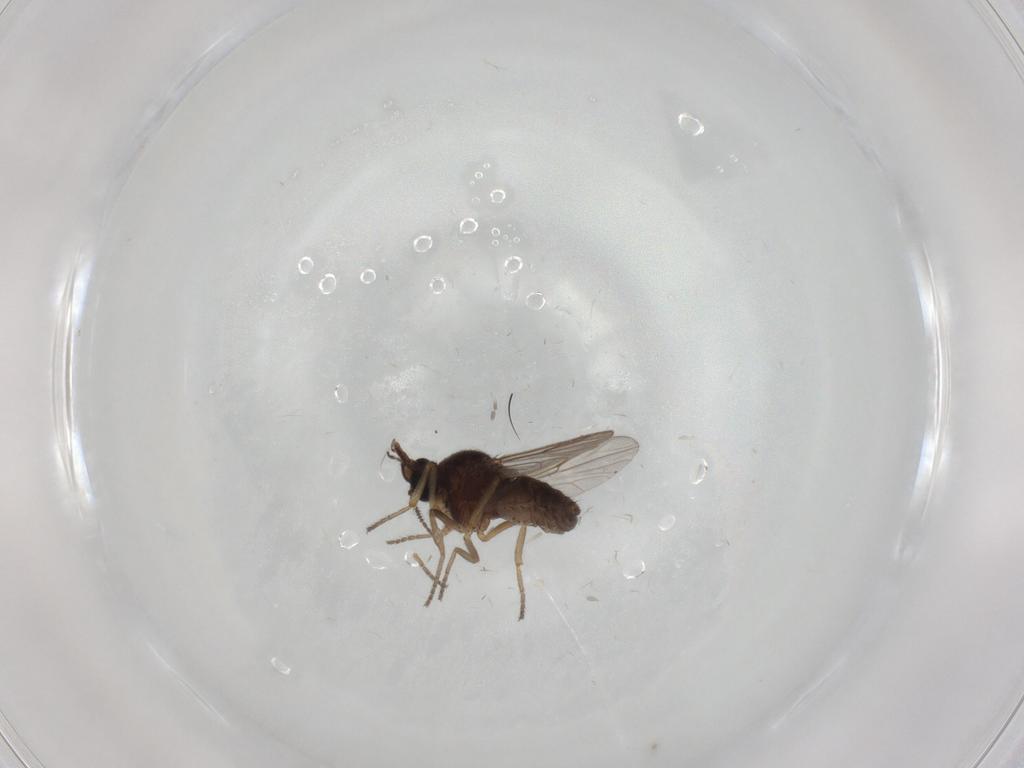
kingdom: Animalia
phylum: Arthropoda
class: Insecta
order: Diptera
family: Ceratopogonidae
